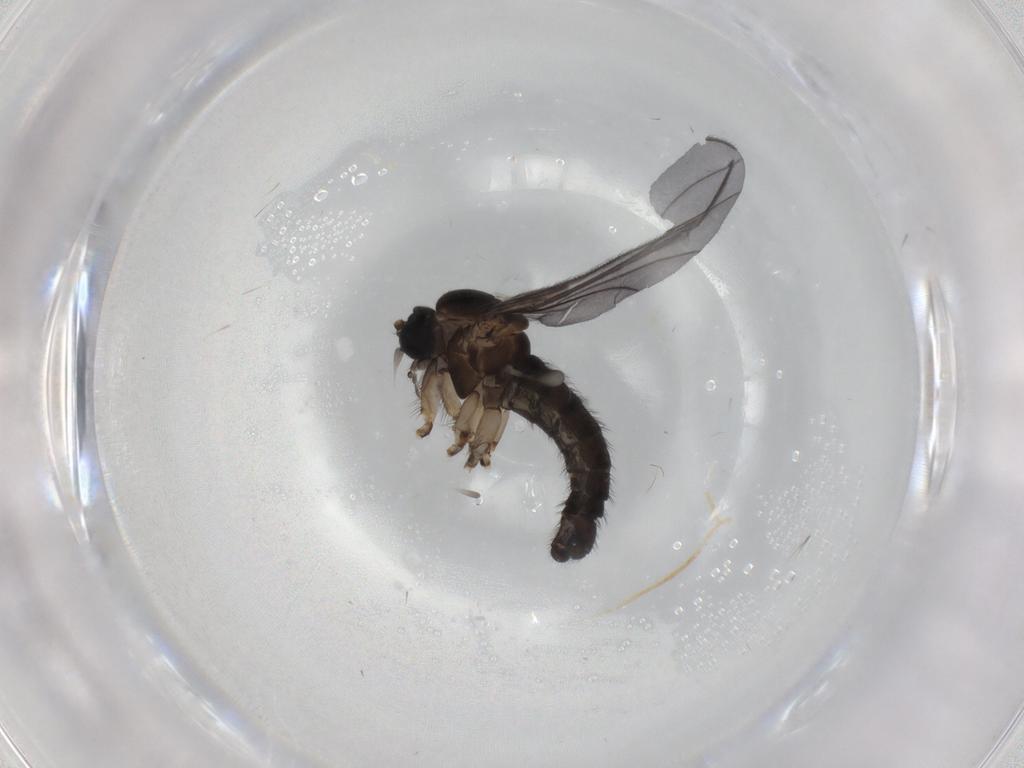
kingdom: Animalia
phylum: Arthropoda
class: Insecta
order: Diptera
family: Sciaridae
